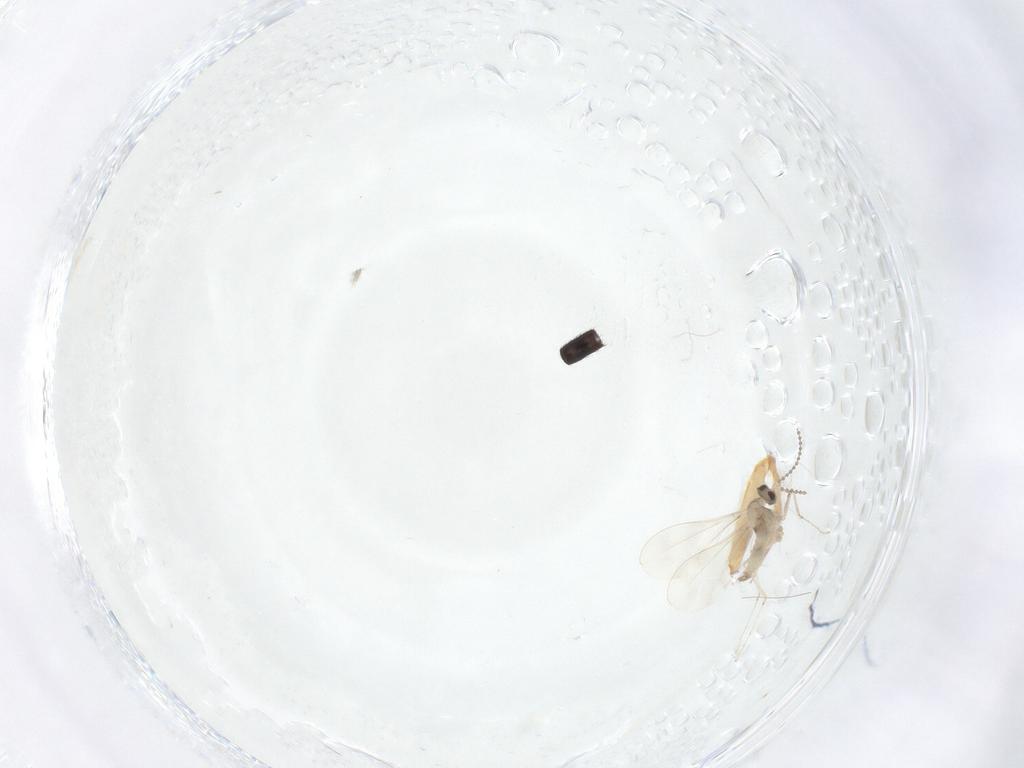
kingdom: Animalia
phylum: Arthropoda
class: Insecta
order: Diptera
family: Cecidomyiidae
